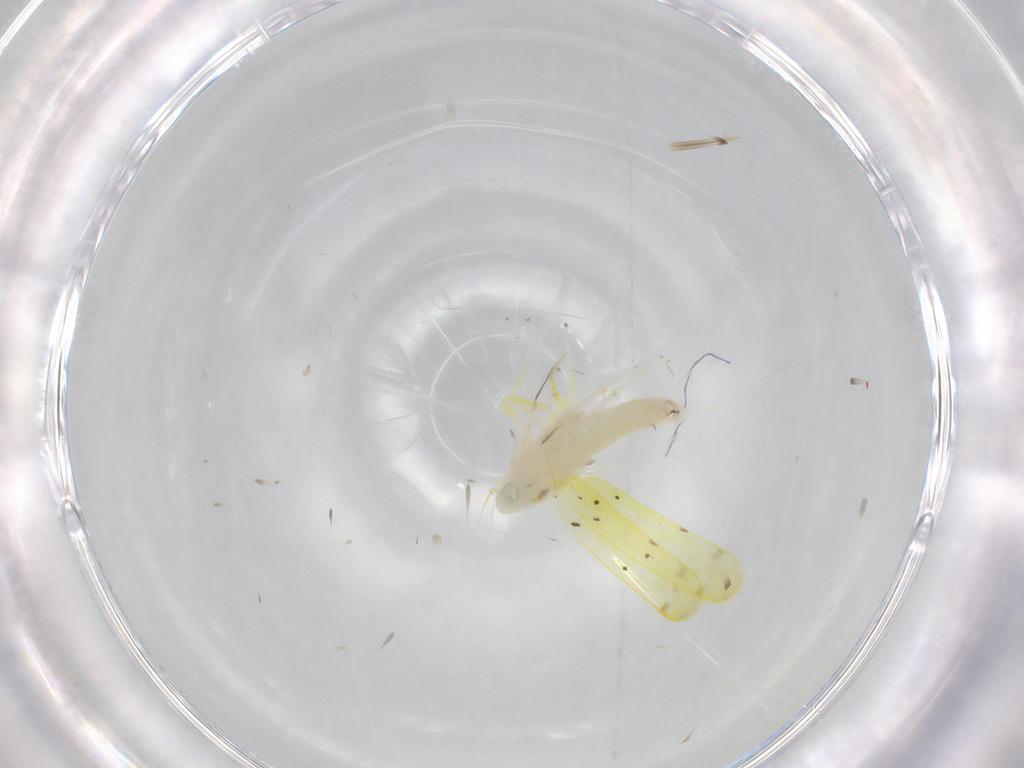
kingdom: Animalia
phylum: Arthropoda
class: Insecta
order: Hemiptera
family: Cicadellidae
